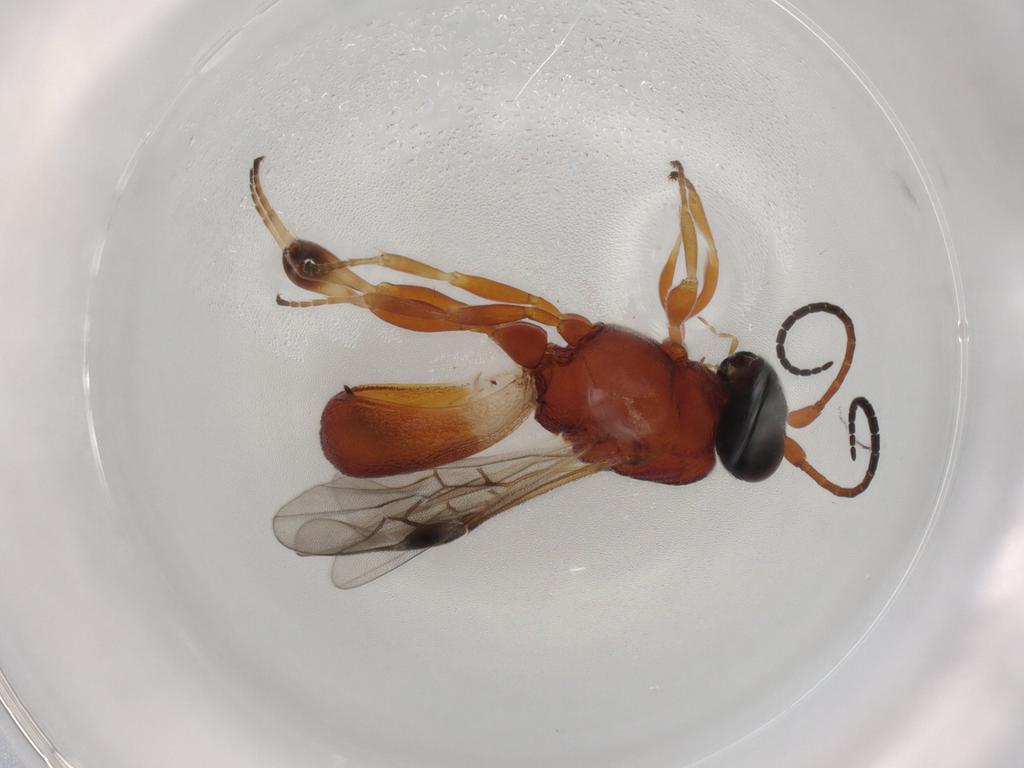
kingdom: Animalia
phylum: Arthropoda
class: Insecta
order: Hymenoptera
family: Braconidae
